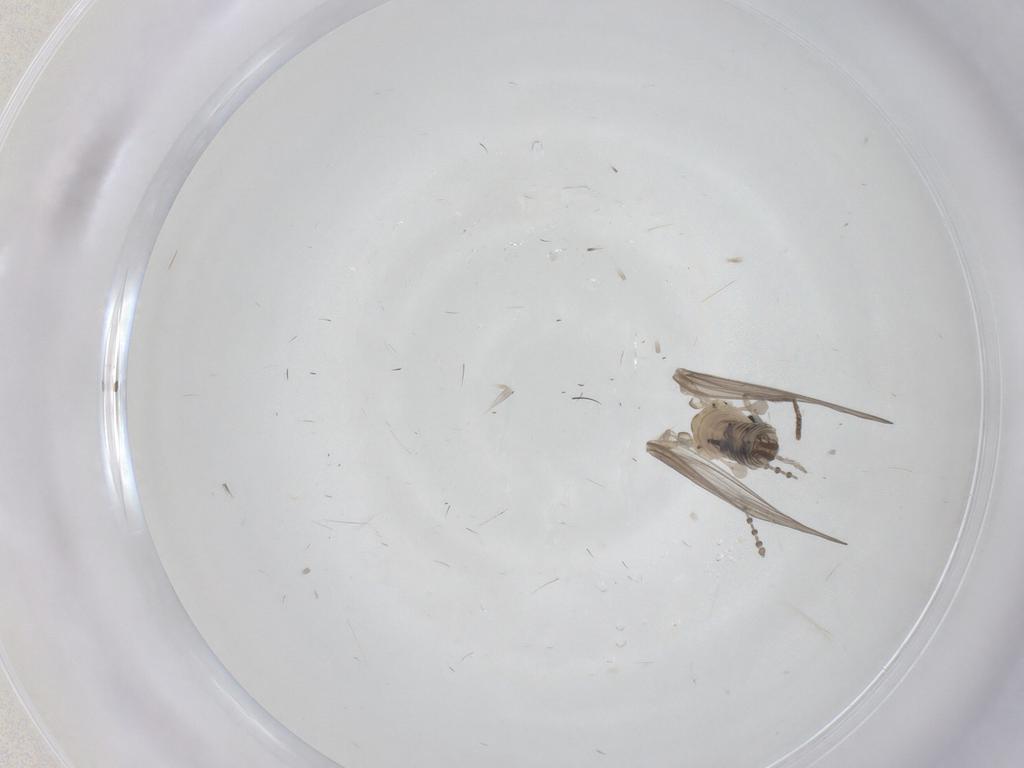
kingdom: Animalia
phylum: Arthropoda
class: Insecta
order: Diptera
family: Psychodidae
